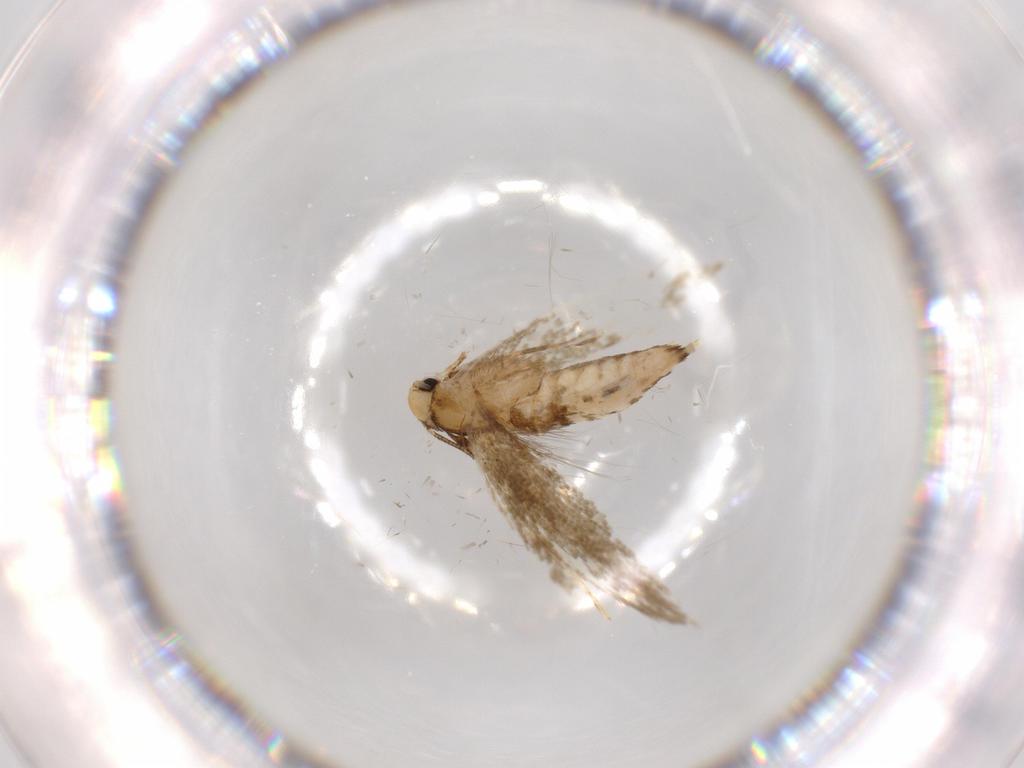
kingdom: Animalia
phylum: Arthropoda
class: Insecta
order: Lepidoptera
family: Tineidae
